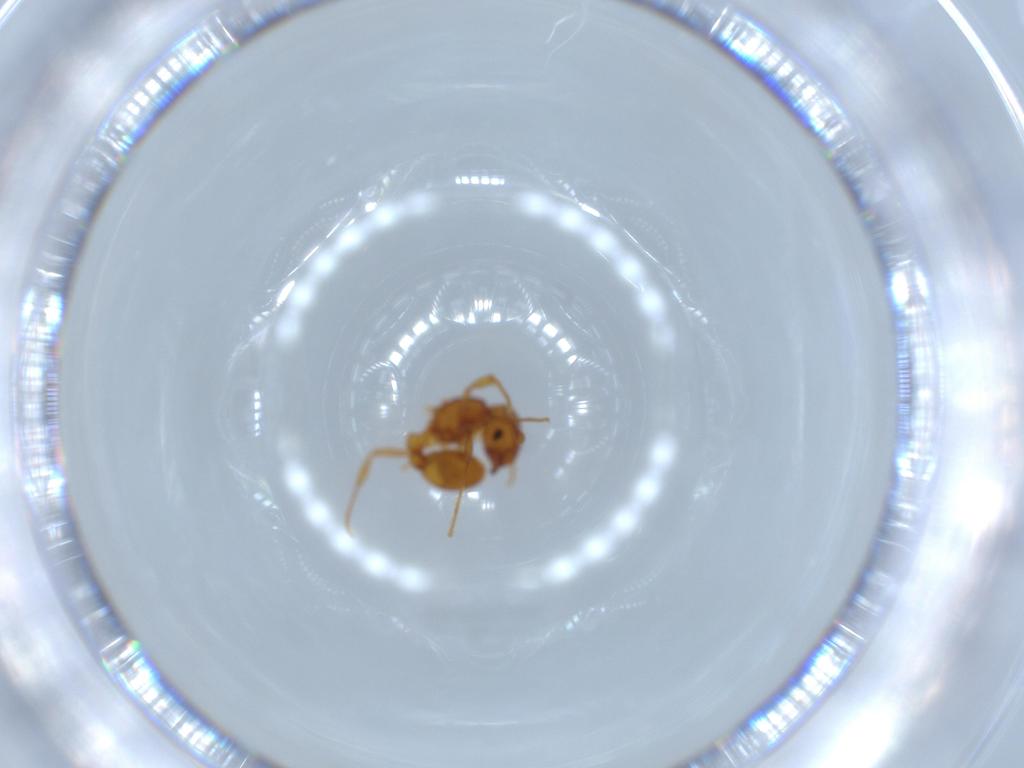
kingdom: Animalia
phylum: Arthropoda
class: Insecta
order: Hymenoptera
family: Formicidae
